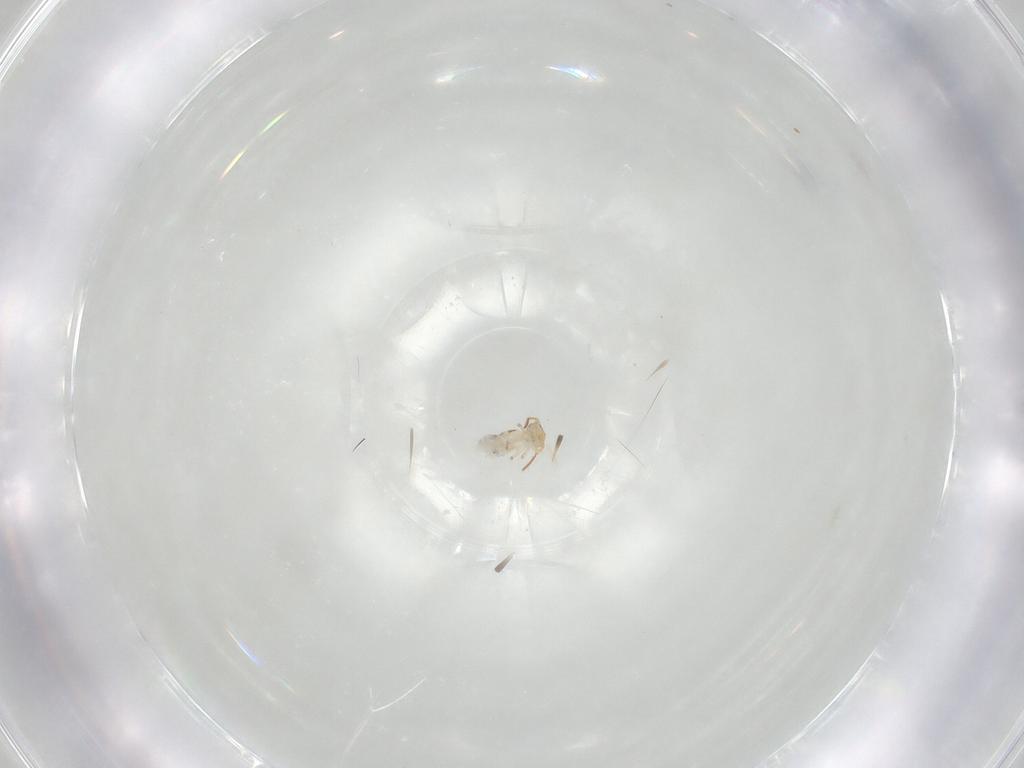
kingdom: Animalia
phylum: Arthropoda
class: Collembola
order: Symphypleona
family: Bourletiellidae
